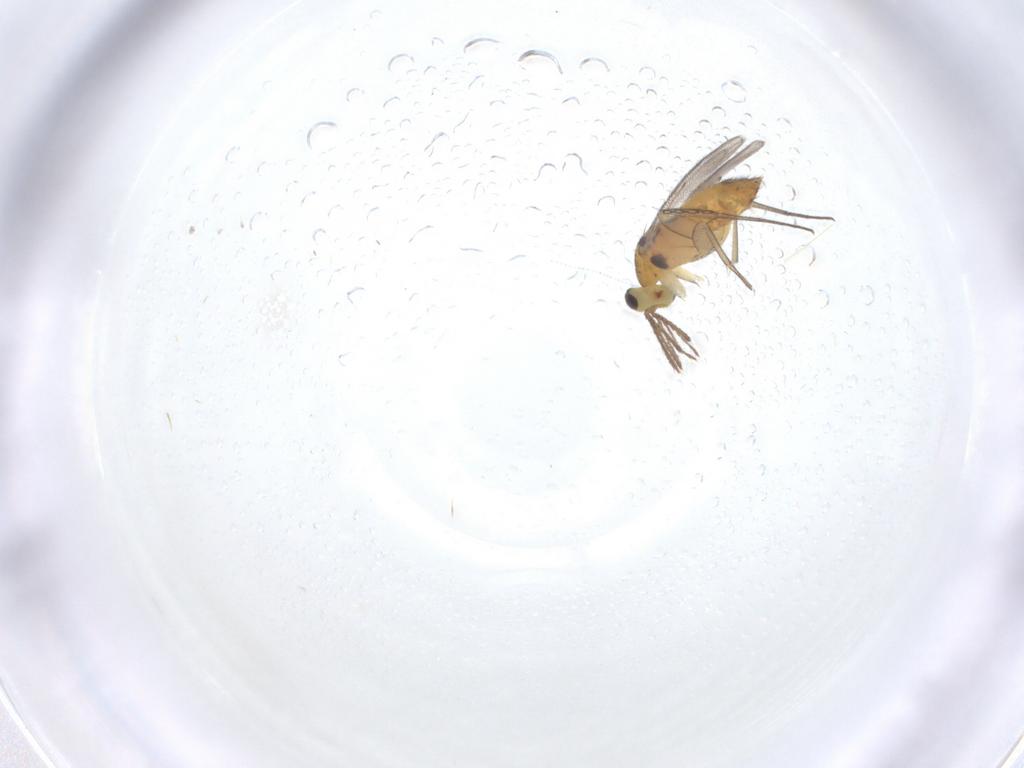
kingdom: Animalia
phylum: Arthropoda
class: Insecta
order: Hymenoptera
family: Eulophidae
